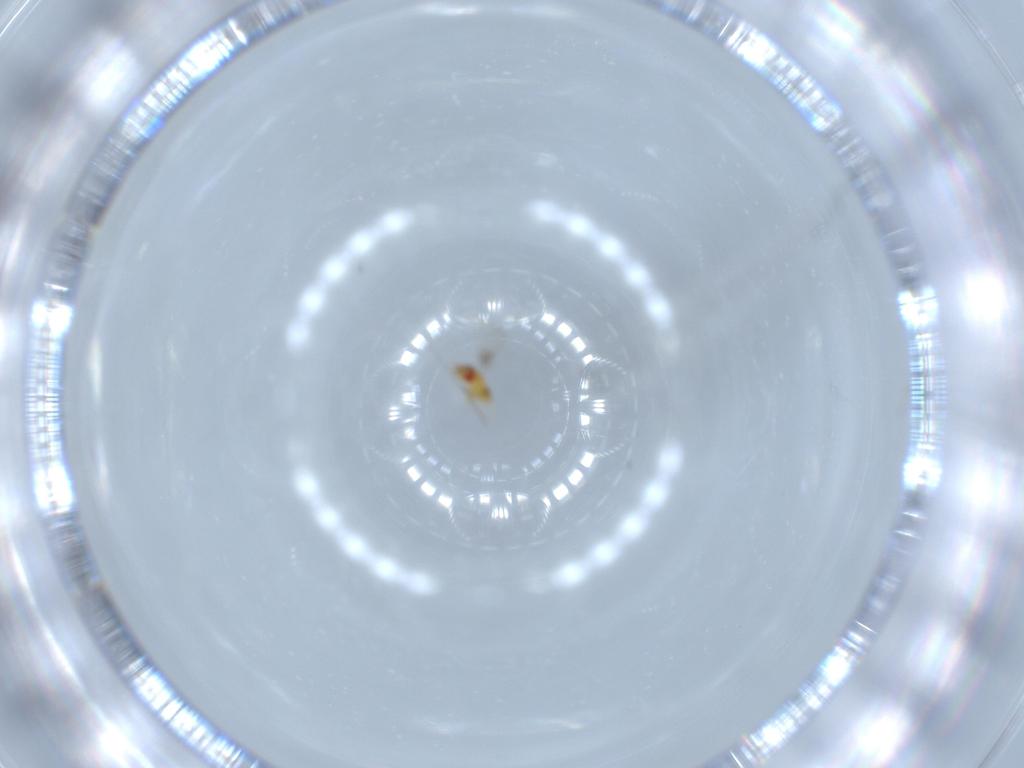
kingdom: Animalia
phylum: Arthropoda
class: Insecta
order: Hymenoptera
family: Trichogrammatidae
